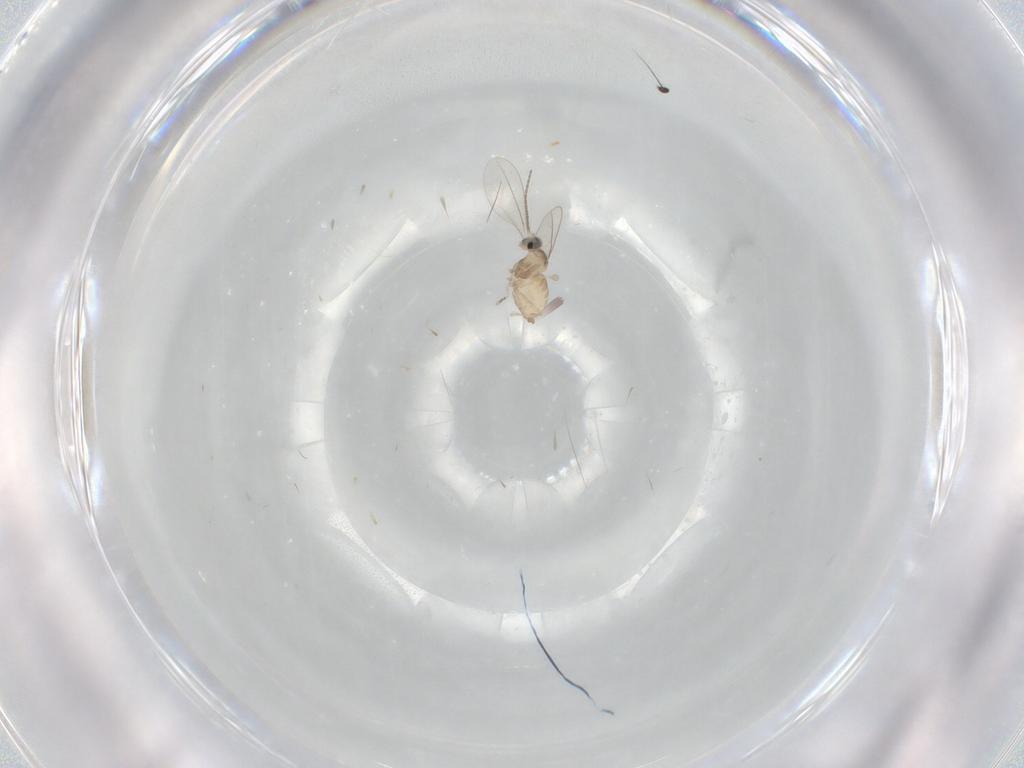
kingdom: Animalia
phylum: Arthropoda
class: Insecta
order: Diptera
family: Cecidomyiidae
